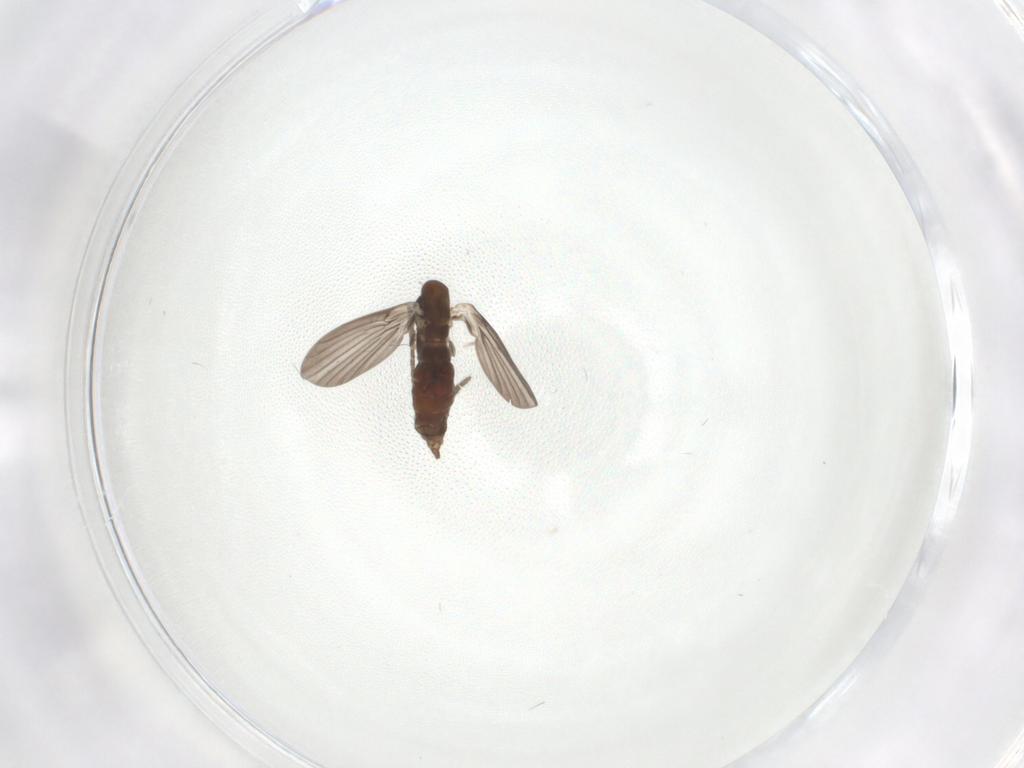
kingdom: Animalia
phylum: Arthropoda
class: Insecta
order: Diptera
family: Chironomidae
